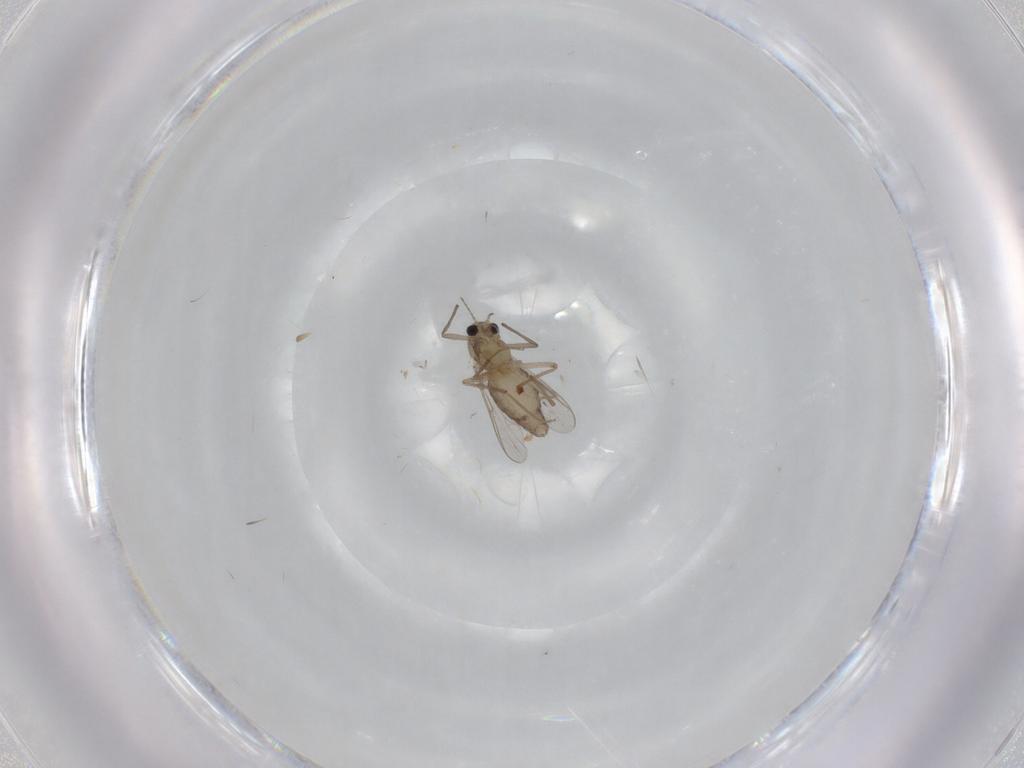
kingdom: Animalia
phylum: Arthropoda
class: Insecta
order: Diptera
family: Chironomidae
